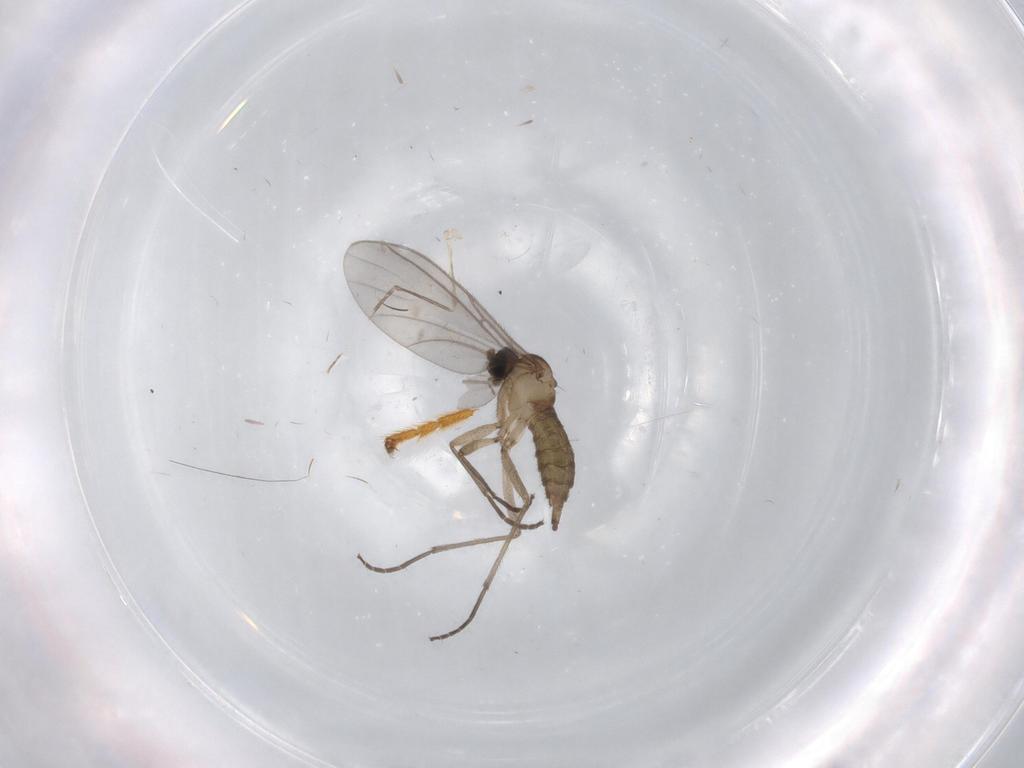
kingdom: Animalia
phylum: Arthropoda
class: Insecta
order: Diptera
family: Sciaridae
